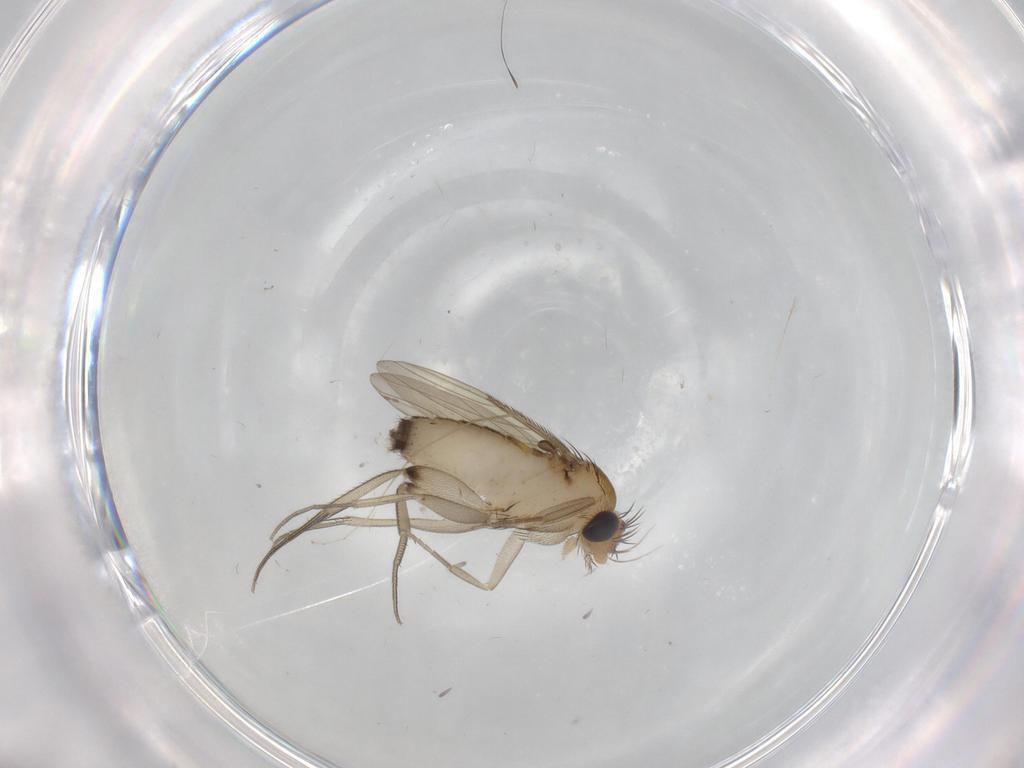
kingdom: Animalia
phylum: Arthropoda
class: Insecta
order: Diptera
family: Phoridae
